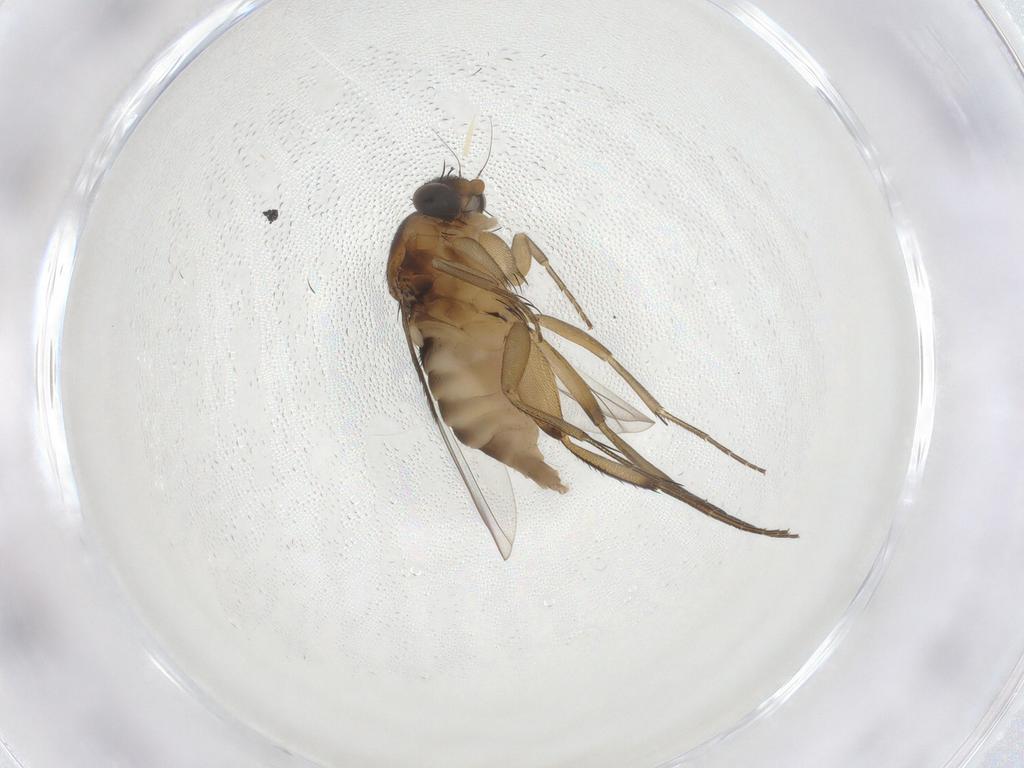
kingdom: Animalia
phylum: Arthropoda
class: Insecta
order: Diptera
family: Phoridae
